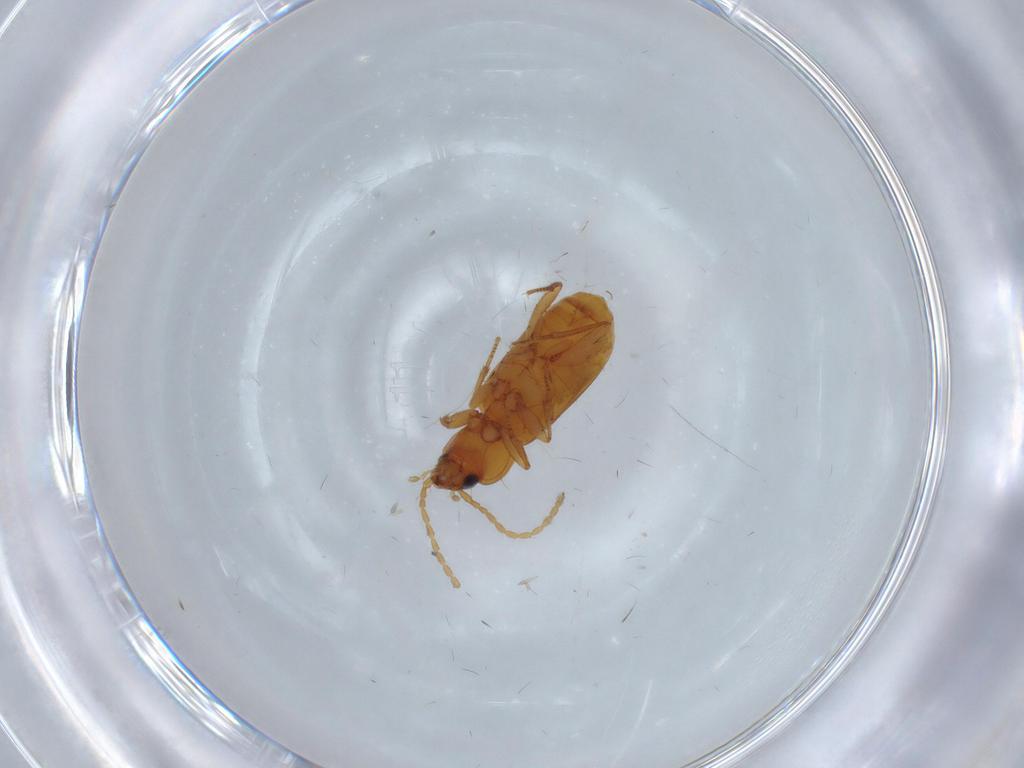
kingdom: Animalia
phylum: Arthropoda
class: Insecta
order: Coleoptera
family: Carabidae
